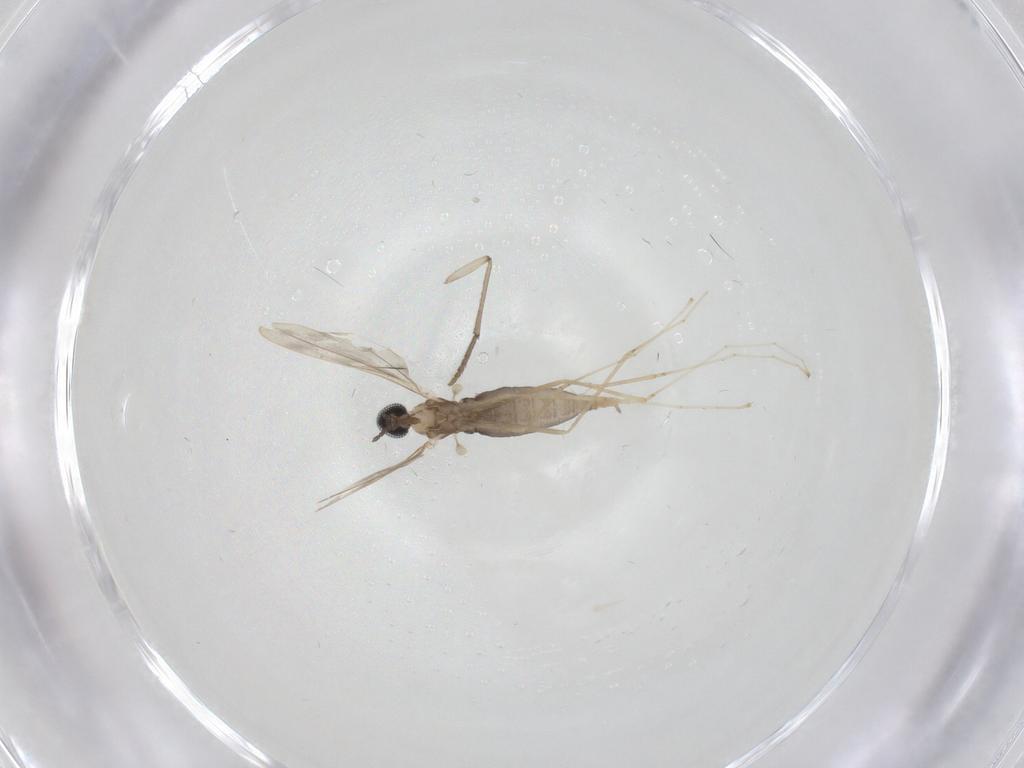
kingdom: Animalia
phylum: Arthropoda
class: Insecta
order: Diptera
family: Cecidomyiidae
